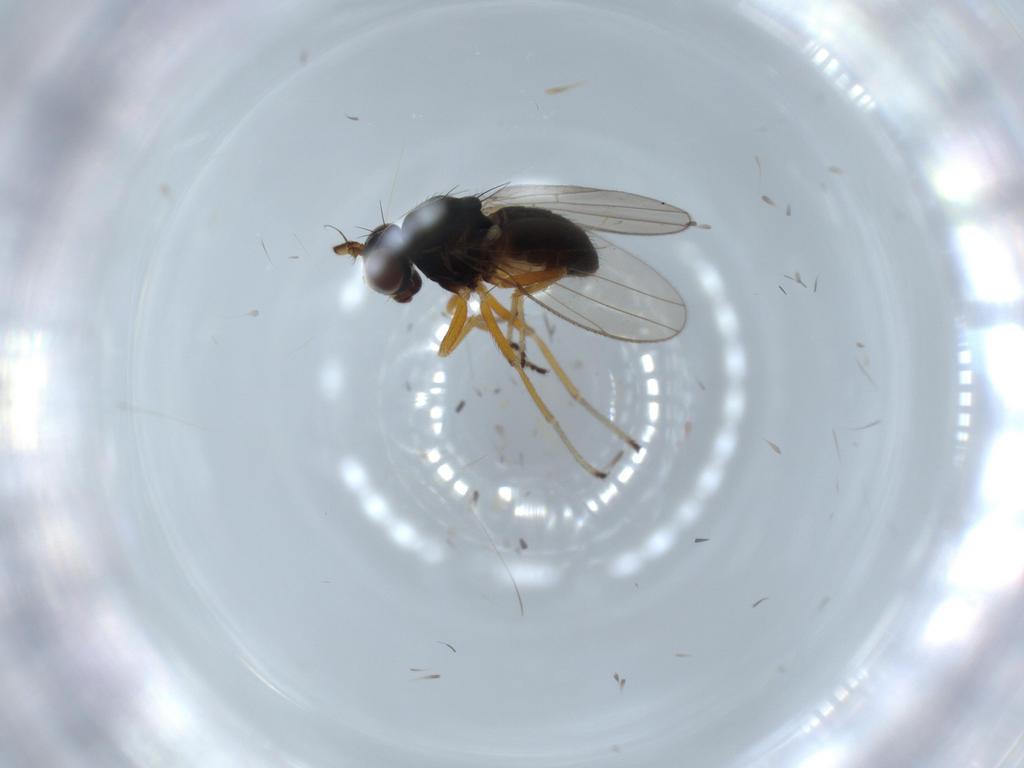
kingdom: Animalia
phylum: Arthropoda
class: Insecta
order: Diptera
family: Ephydridae
